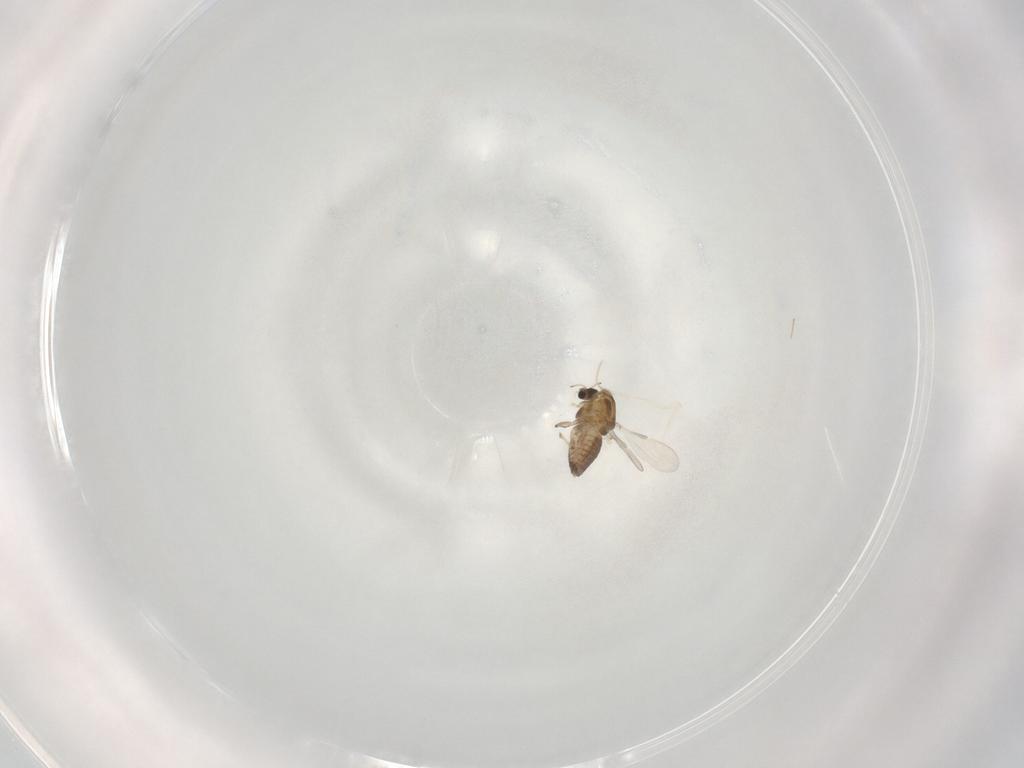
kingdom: Animalia
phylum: Arthropoda
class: Insecta
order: Diptera
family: Chironomidae
